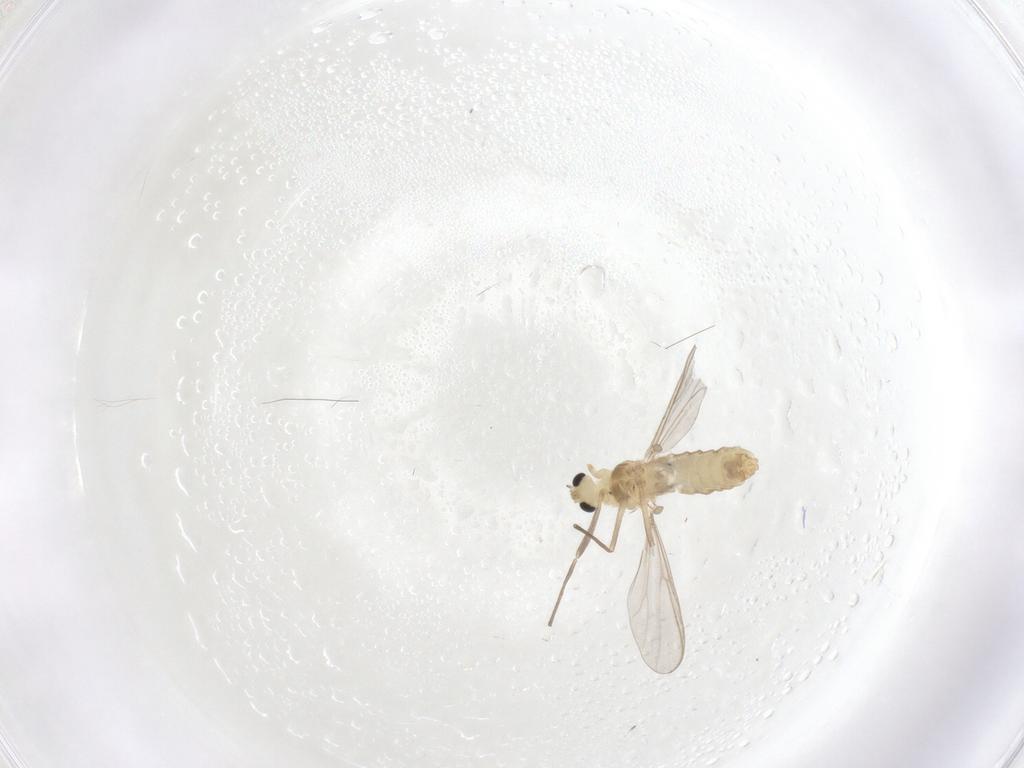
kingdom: Animalia
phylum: Arthropoda
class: Insecta
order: Diptera
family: Chironomidae
